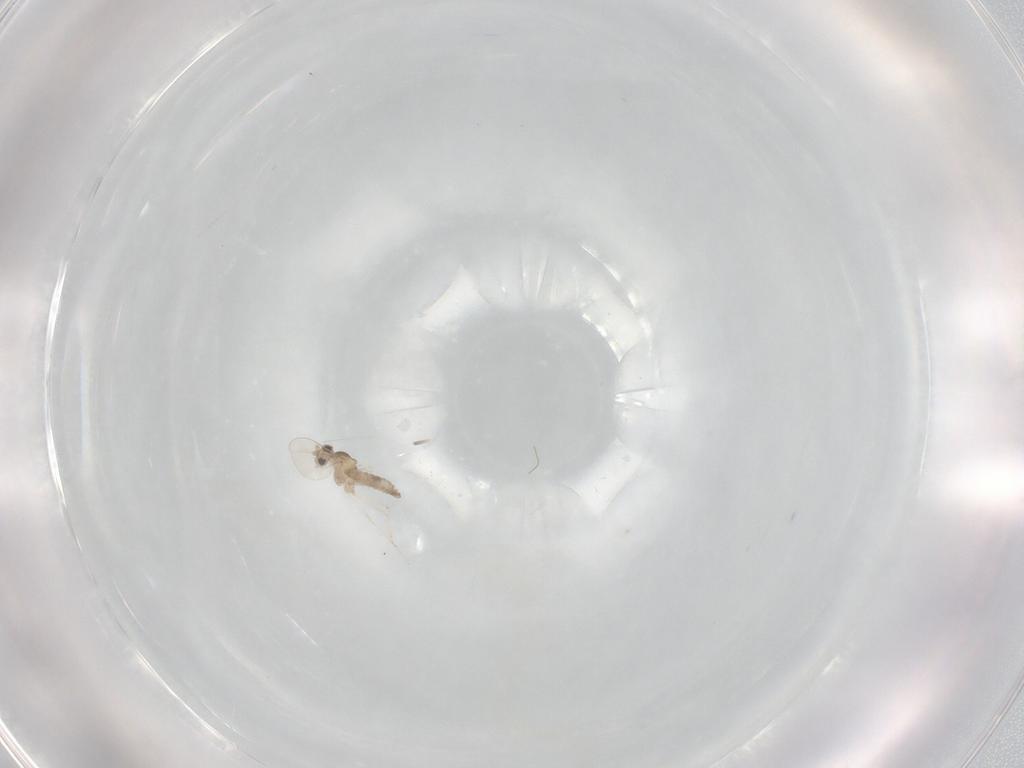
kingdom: Animalia
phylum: Arthropoda
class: Insecta
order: Diptera
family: Cecidomyiidae
